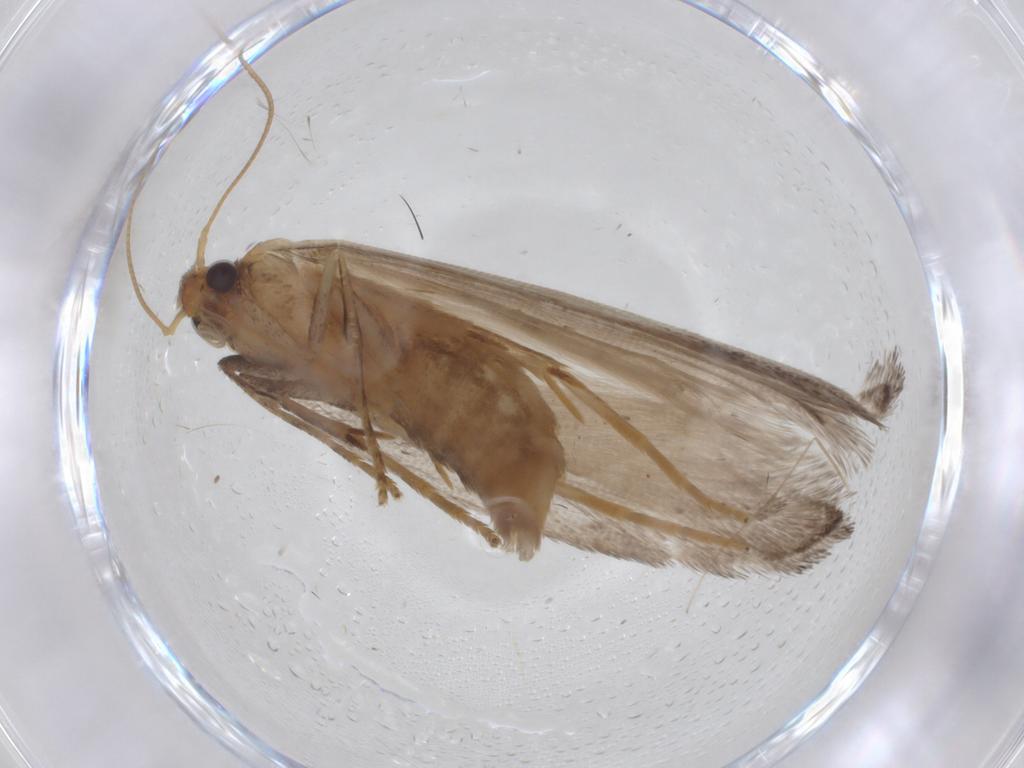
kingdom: Animalia
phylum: Arthropoda
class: Insecta
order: Lepidoptera
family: Carposinidae
